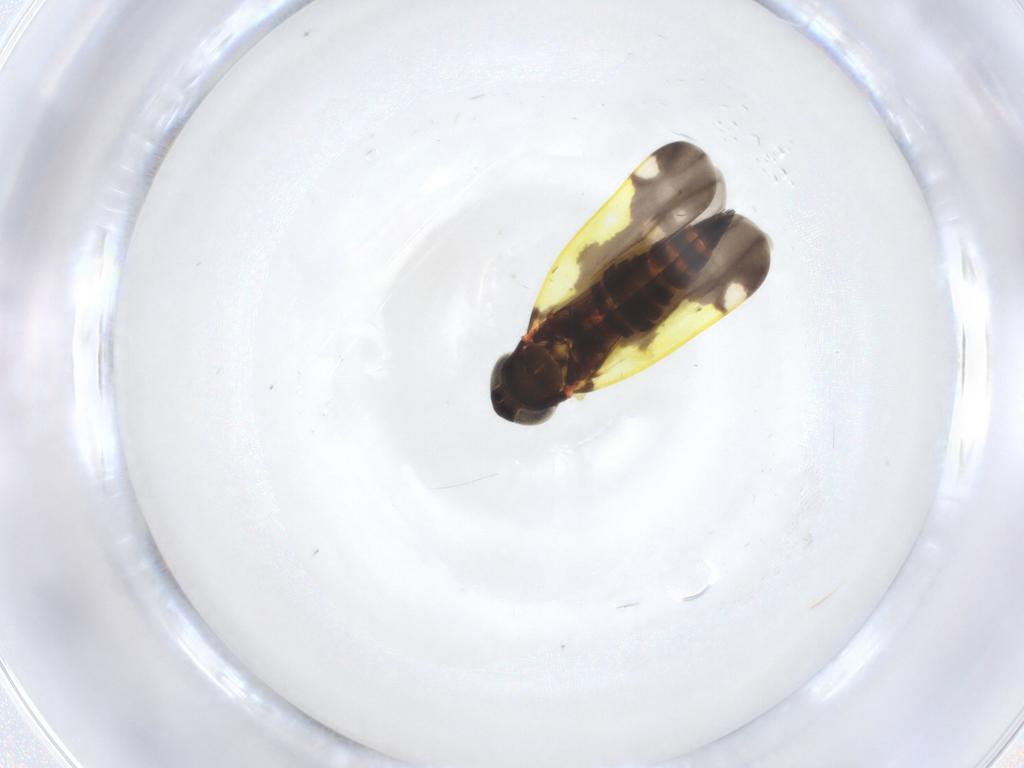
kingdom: Animalia
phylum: Arthropoda
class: Insecta
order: Hemiptera
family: Cicadellidae
